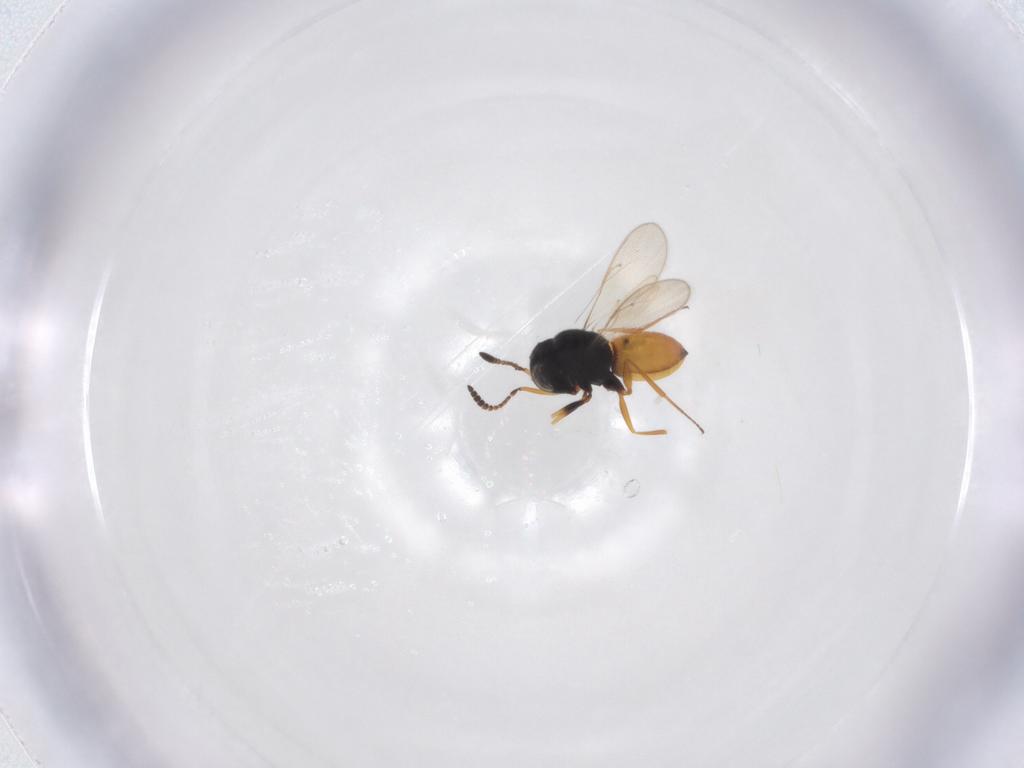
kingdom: Animalia
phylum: Arthropoda
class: Insecta
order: Hymenoptera
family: Scelionidae
